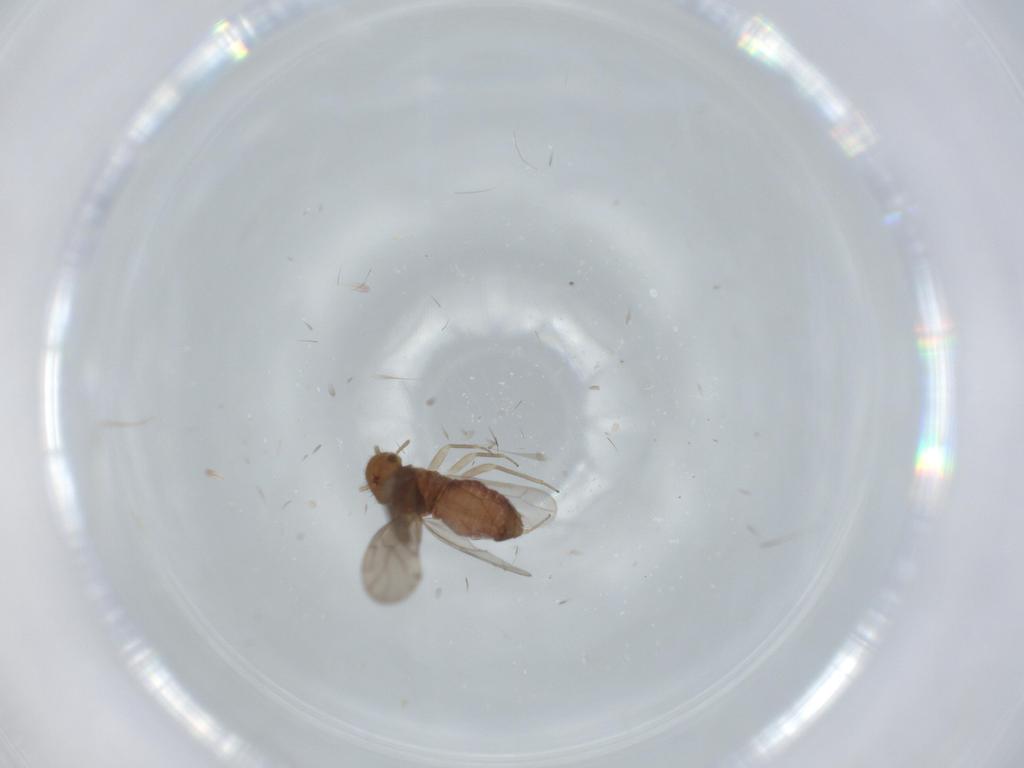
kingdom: Animalia
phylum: Arthropoda
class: Insecta
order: Psocodea
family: Ectopsocidae
